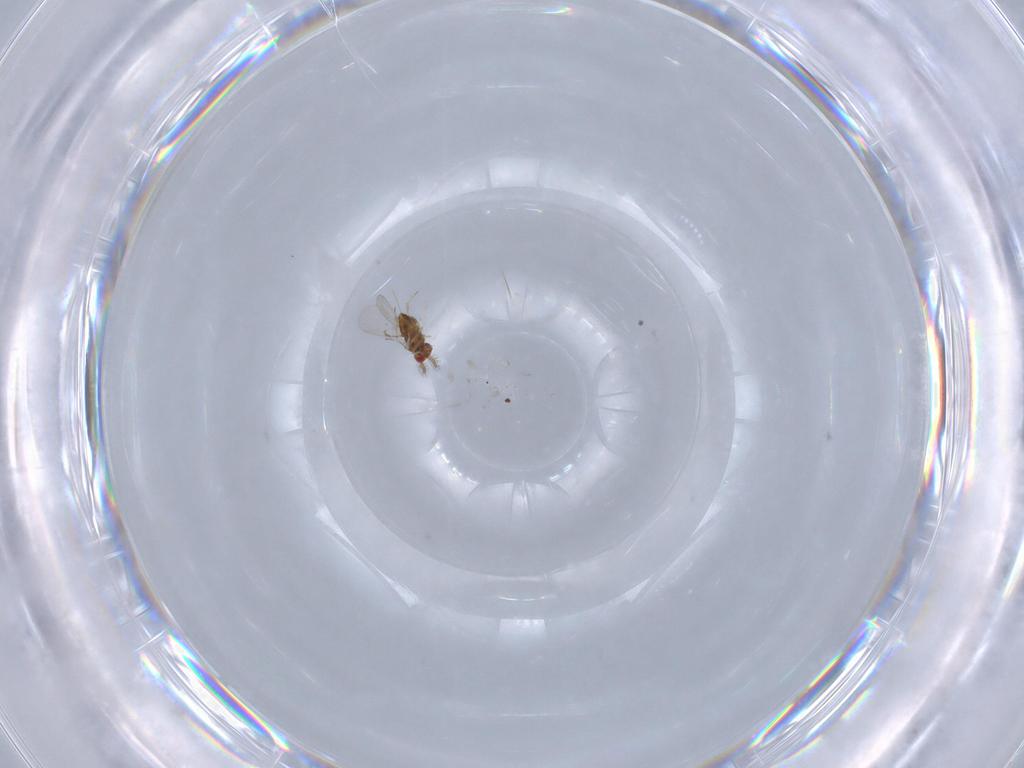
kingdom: Animalia
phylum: Arthropoda
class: Insecta
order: Hymenoptera
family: Trichogrammatidae
